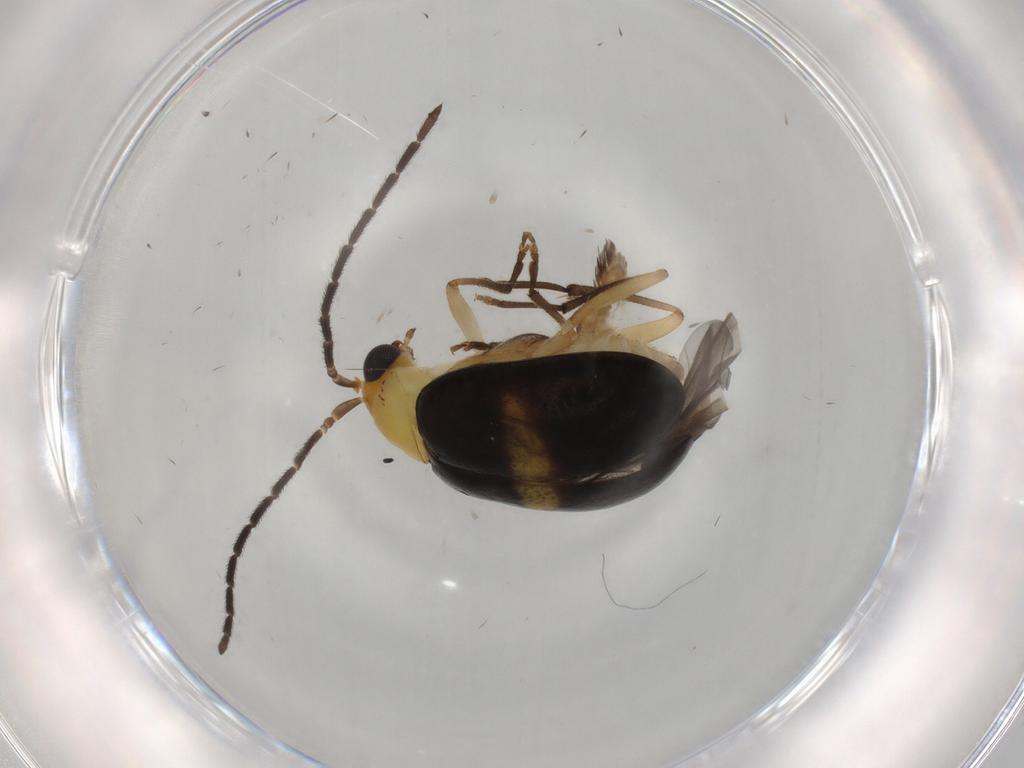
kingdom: Animalia
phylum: Arthropoda
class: Insecta
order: Coleoptera
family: Chrysomelidae
